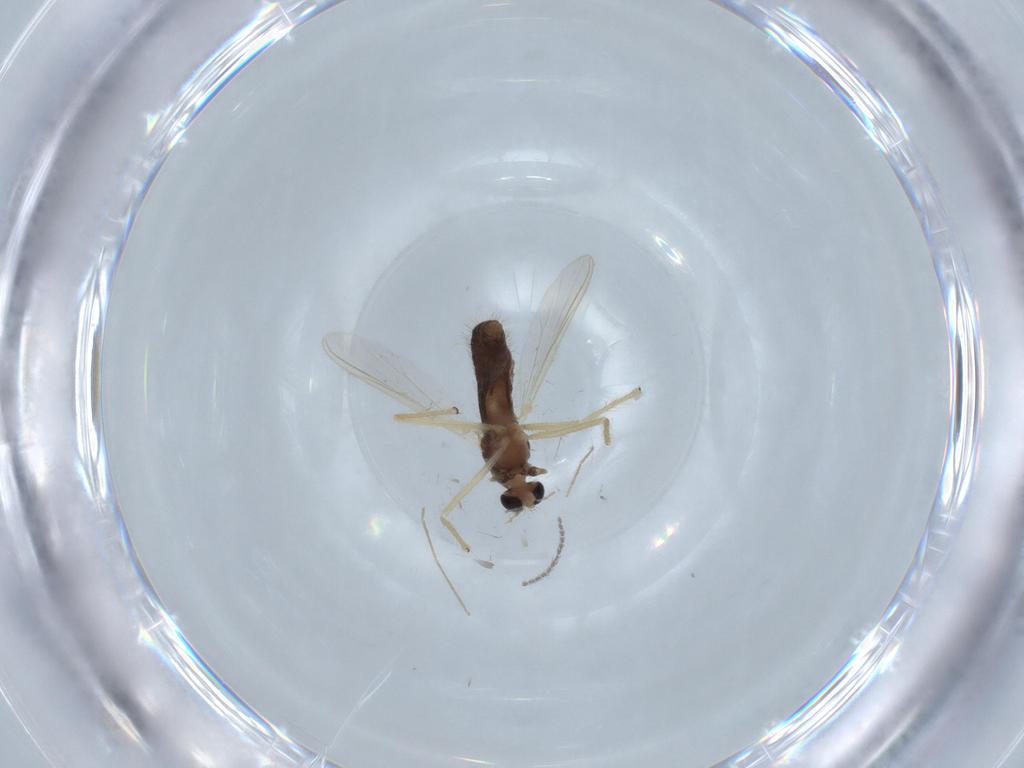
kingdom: Animalia
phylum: Arthropoda
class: Insecta
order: Diptera
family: Chironomidae
